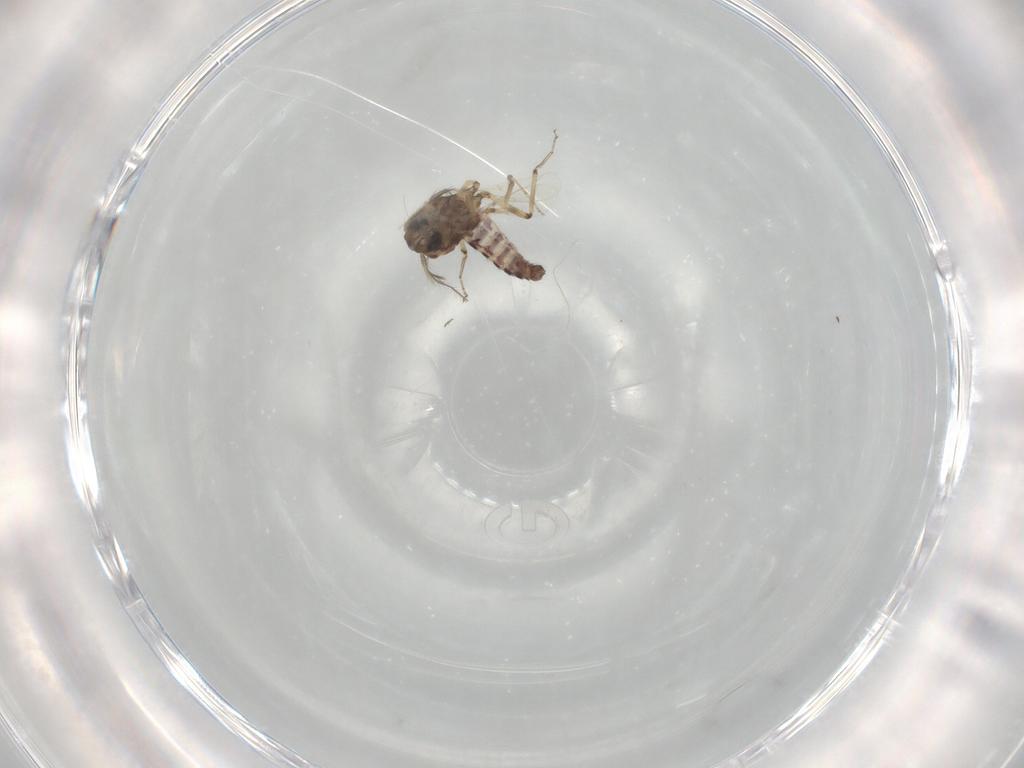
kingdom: Animalia
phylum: Arthropoda
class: Insecta
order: Diptera
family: Ceratopogonidae
